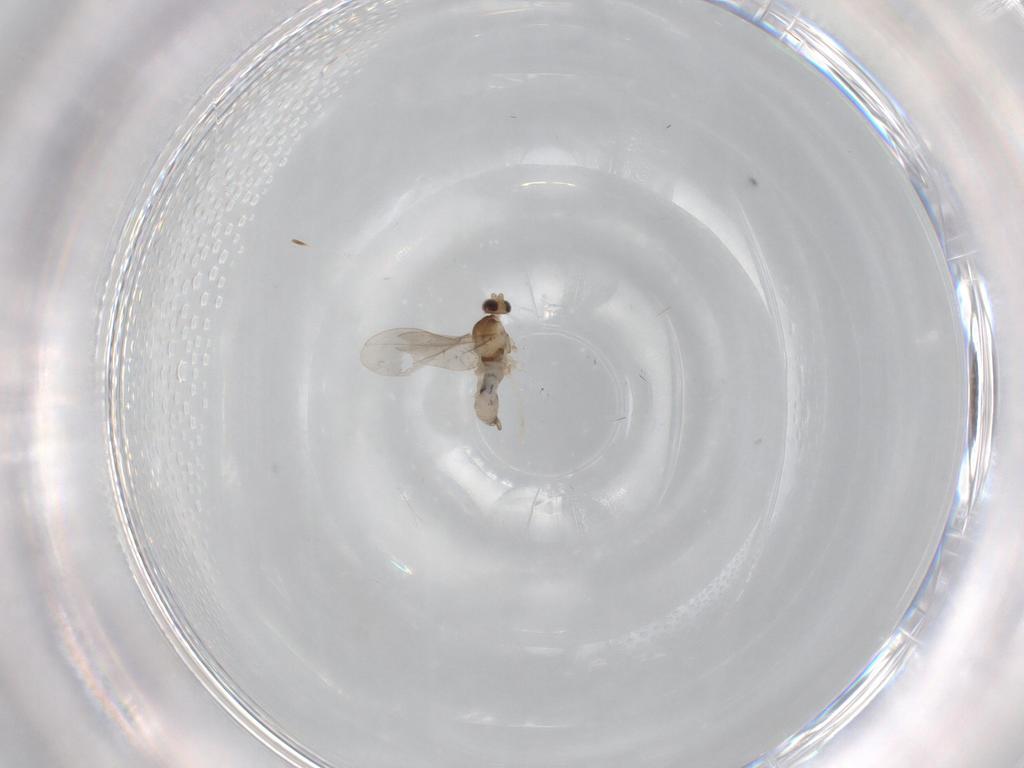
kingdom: Animalia
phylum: Arthropoda
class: Insecta
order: Diptera
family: Cecidomyiidae
